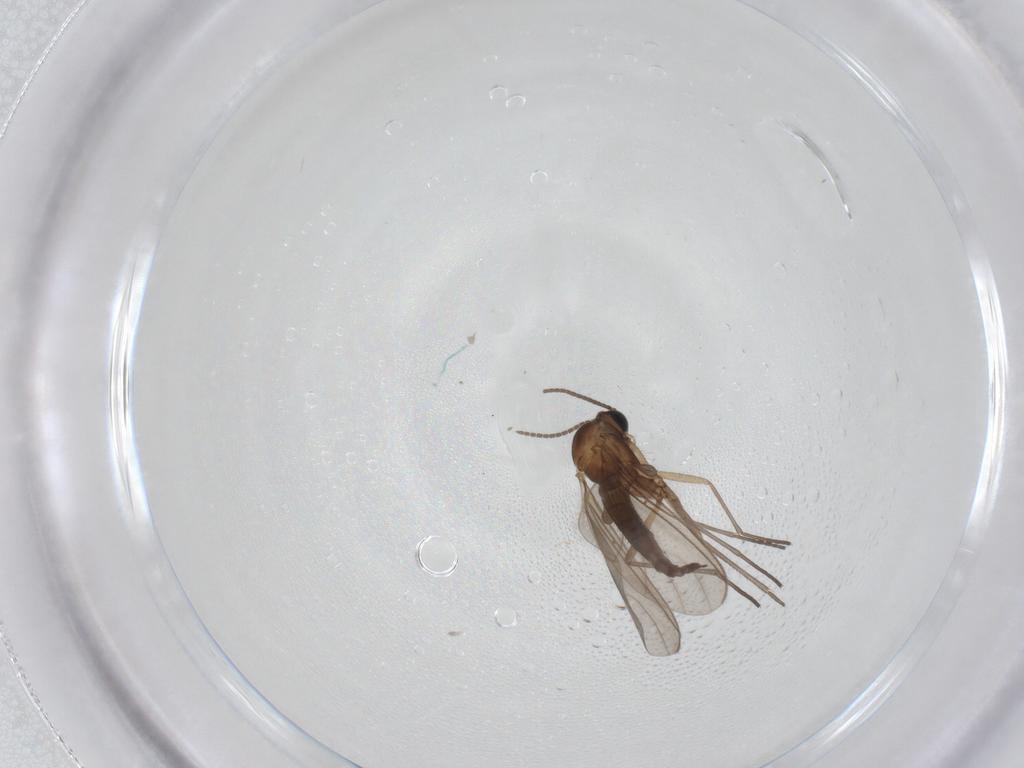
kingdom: Animalia
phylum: Arthropoda
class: Insecta
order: Diptera
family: Sciaridae
